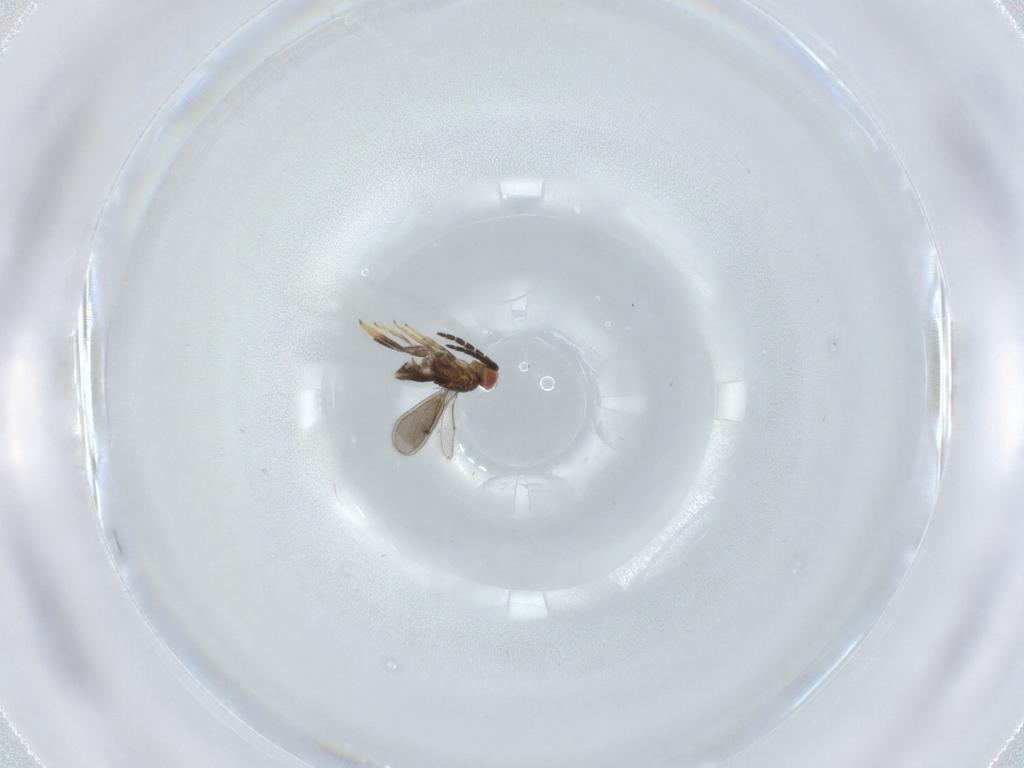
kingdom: Animalia
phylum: Arthropoda
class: Insecta
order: Hymenoptera
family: Aphelinidae
